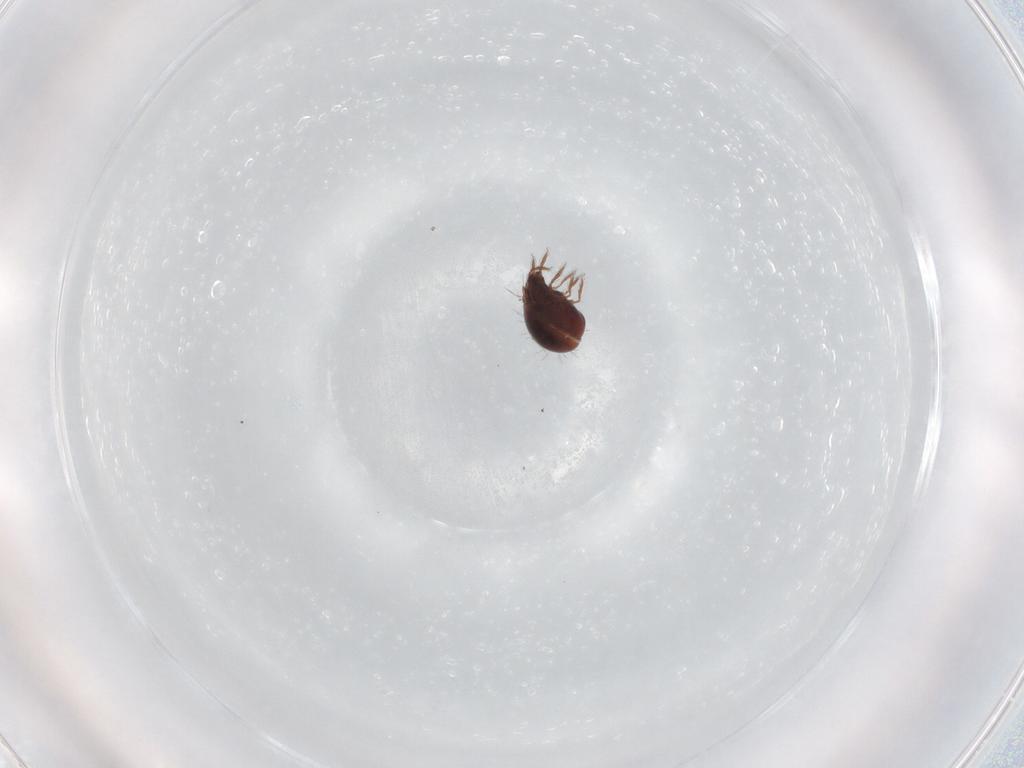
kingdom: Animalia
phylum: Arthropoda
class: Arachnida
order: Sarcoptiformes
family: Humerobatidae
